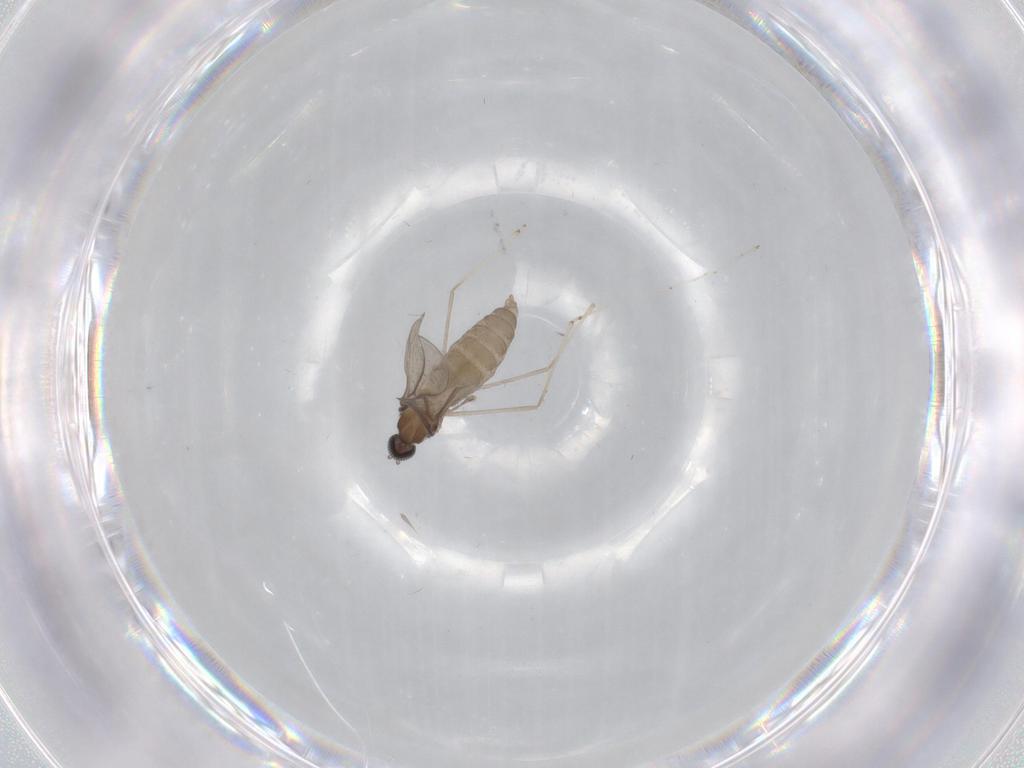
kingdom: Animalia
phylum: Arthropoda
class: Insecta
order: Diptera
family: Cecidomyiidae
